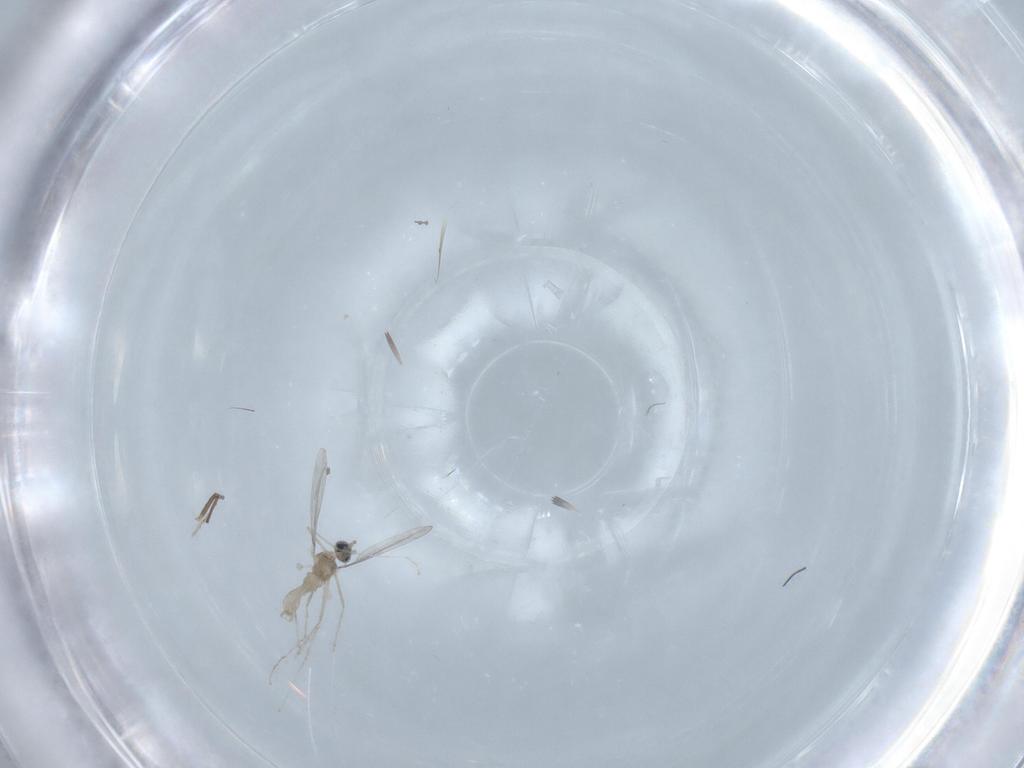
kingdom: Animalia
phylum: Arthropoda
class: Insecta
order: Diptera
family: Cecidomyiidae
